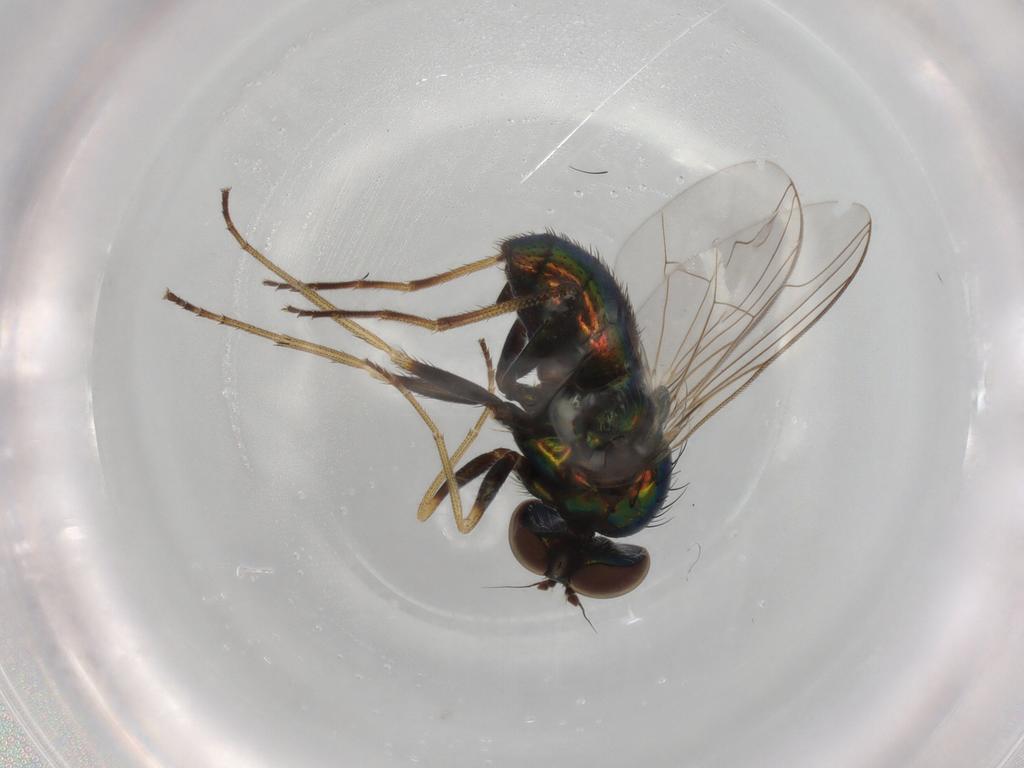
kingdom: Animalia
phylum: Arthropoda
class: Insecta
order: Diptera
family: Dolichopodidae
